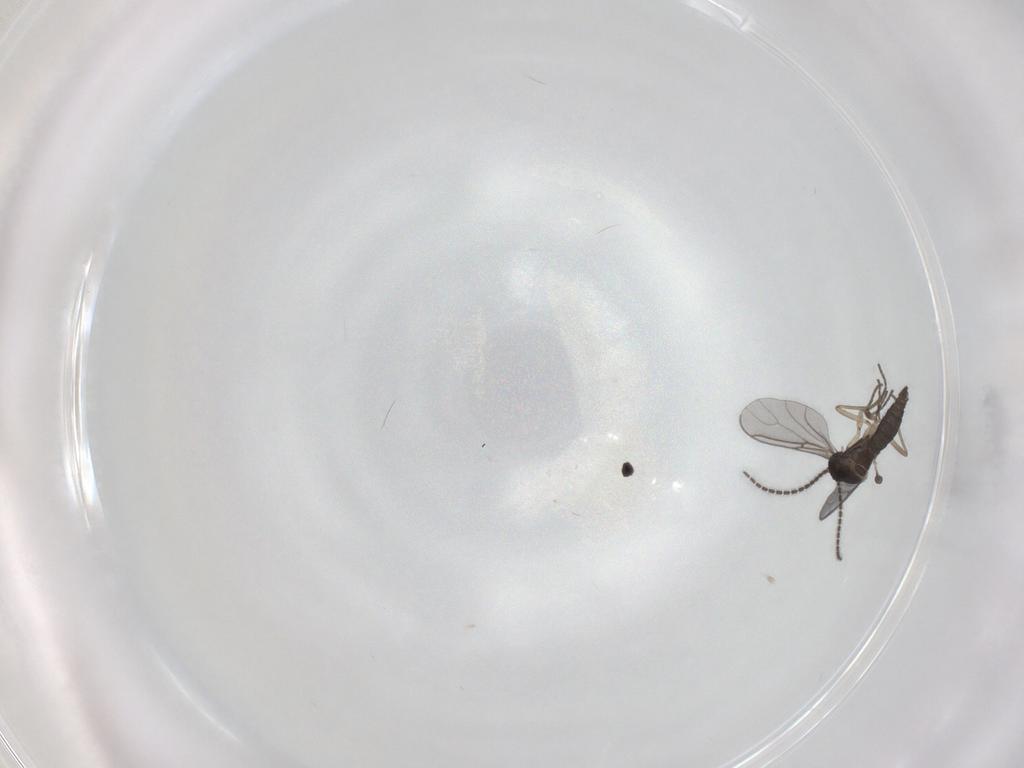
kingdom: Animalia
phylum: Arthropoda
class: Insecta
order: Diptera
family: Sciaridae
